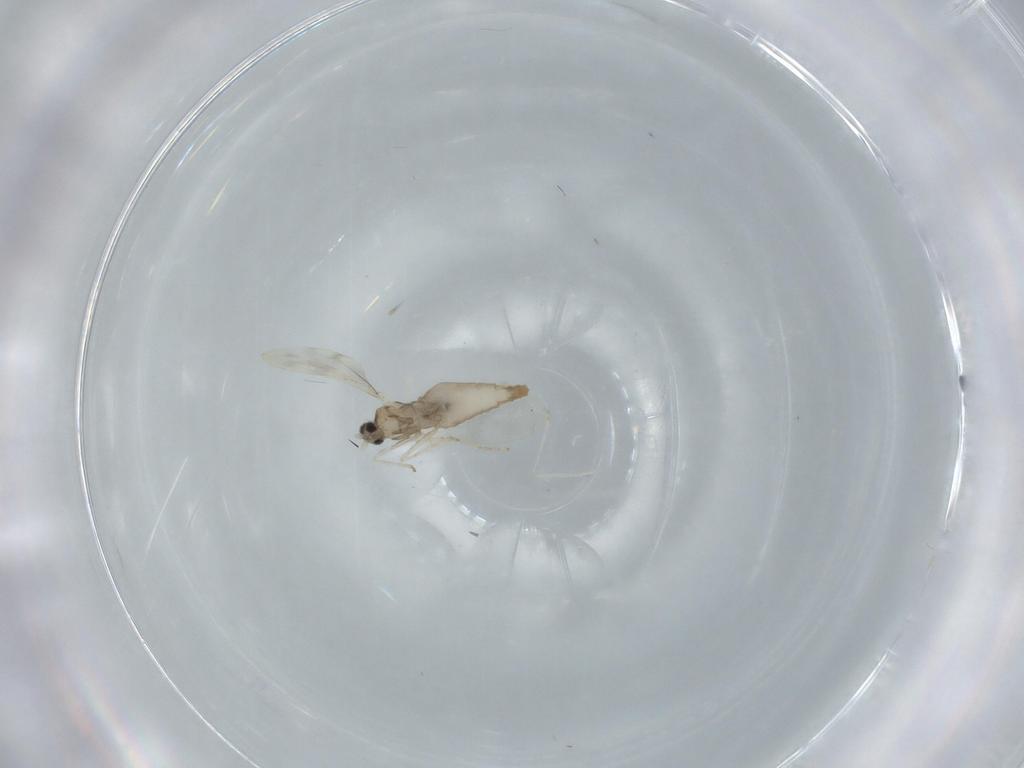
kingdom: Animalia
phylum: Arthropoda
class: Insecta
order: Diptera
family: Cecidomyiidae
